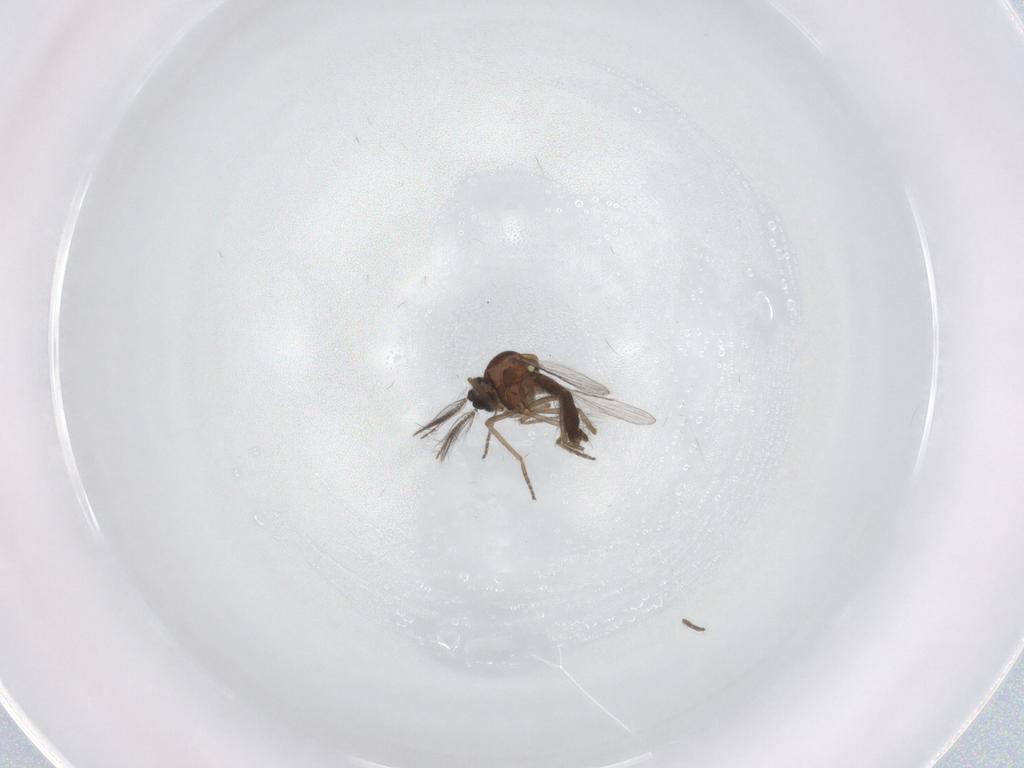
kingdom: Animalia
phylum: Arthropoda
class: Insecta
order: Diptera
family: Ceratopogonidae
